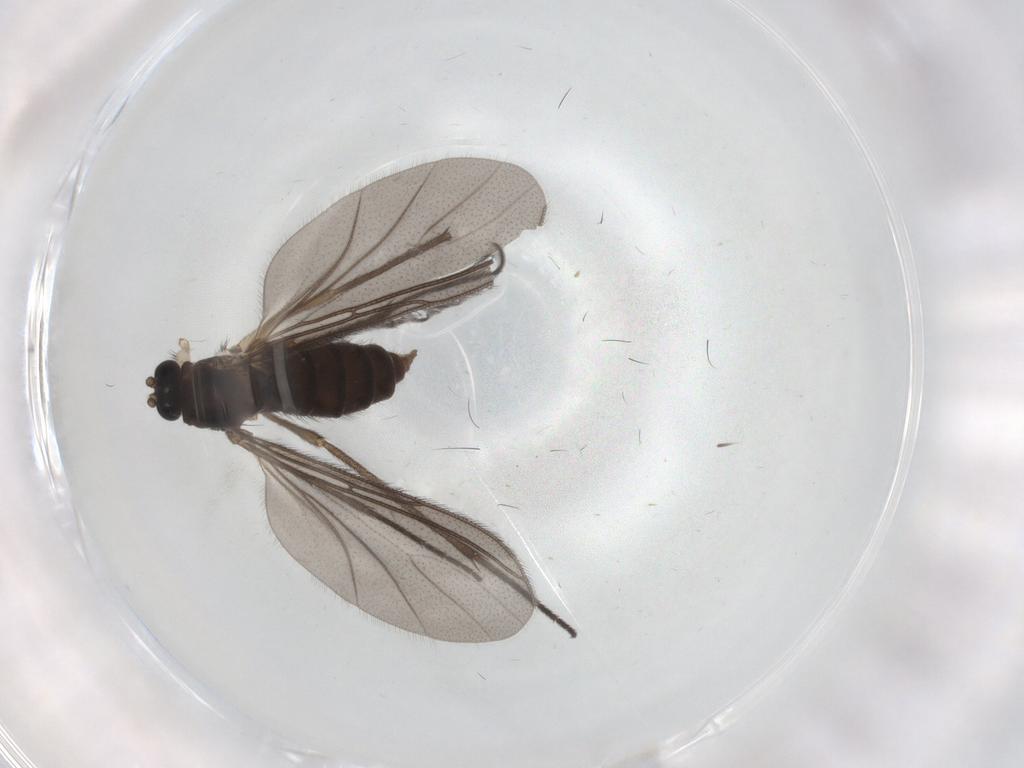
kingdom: Animalia
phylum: Arthropoda
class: Insecta
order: Diptera
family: Sciaridae
